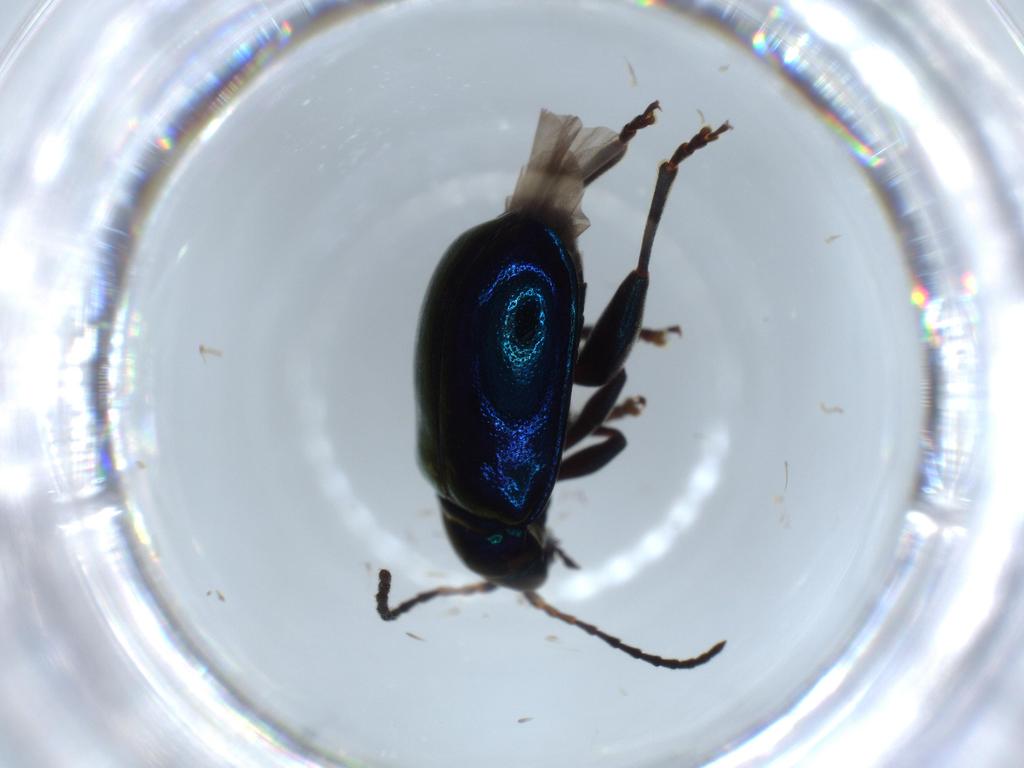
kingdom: Animalia
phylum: Arthropoda
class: Insecta
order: Coleoptera
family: Chrysomelidae
